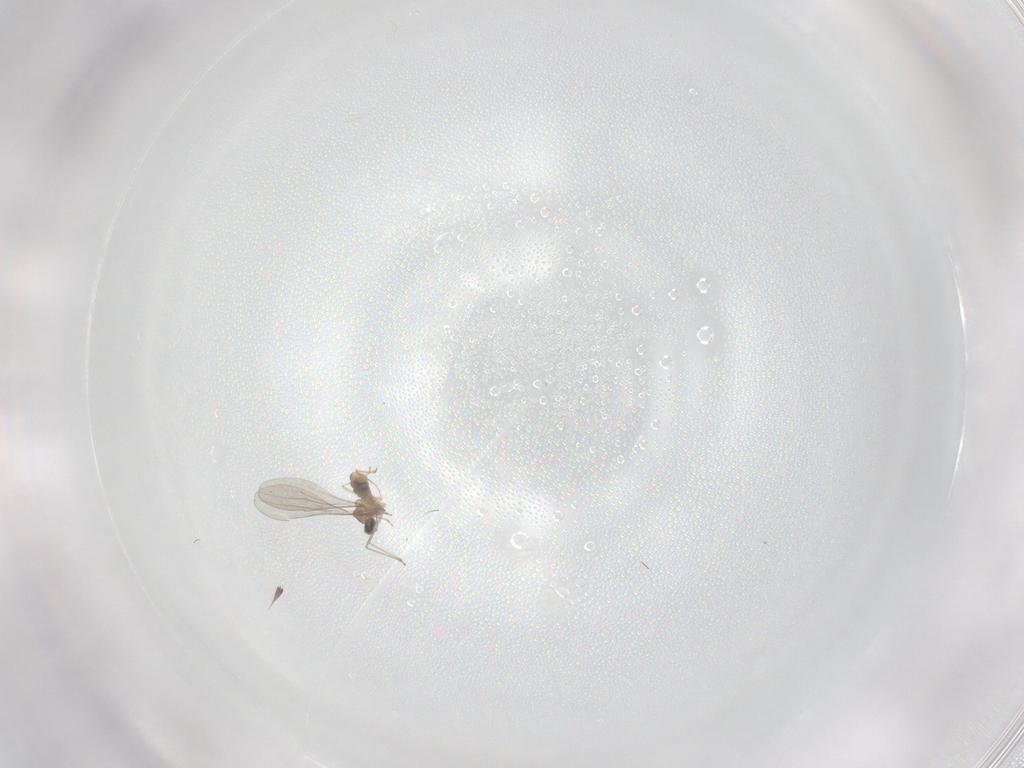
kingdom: Animalia
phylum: Arthropoda
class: Insecta
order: Diptera
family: Cecidomyiidae
